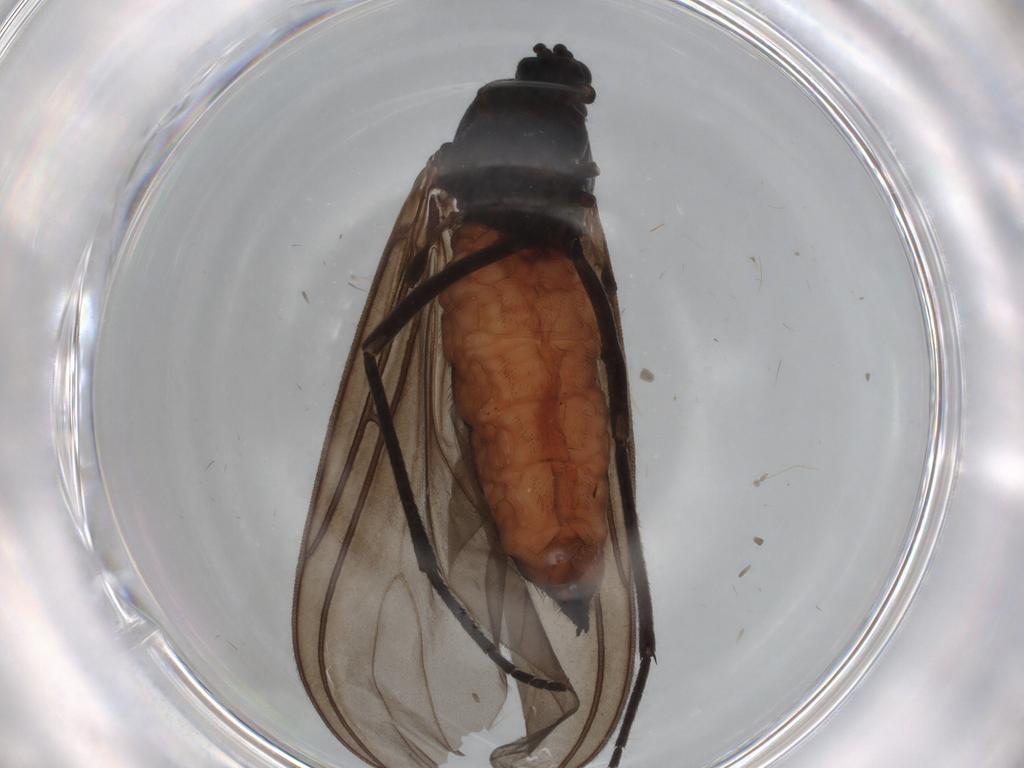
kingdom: Animalia
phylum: Arthropoda
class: Insecta
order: Diptera
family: Sciaridae
